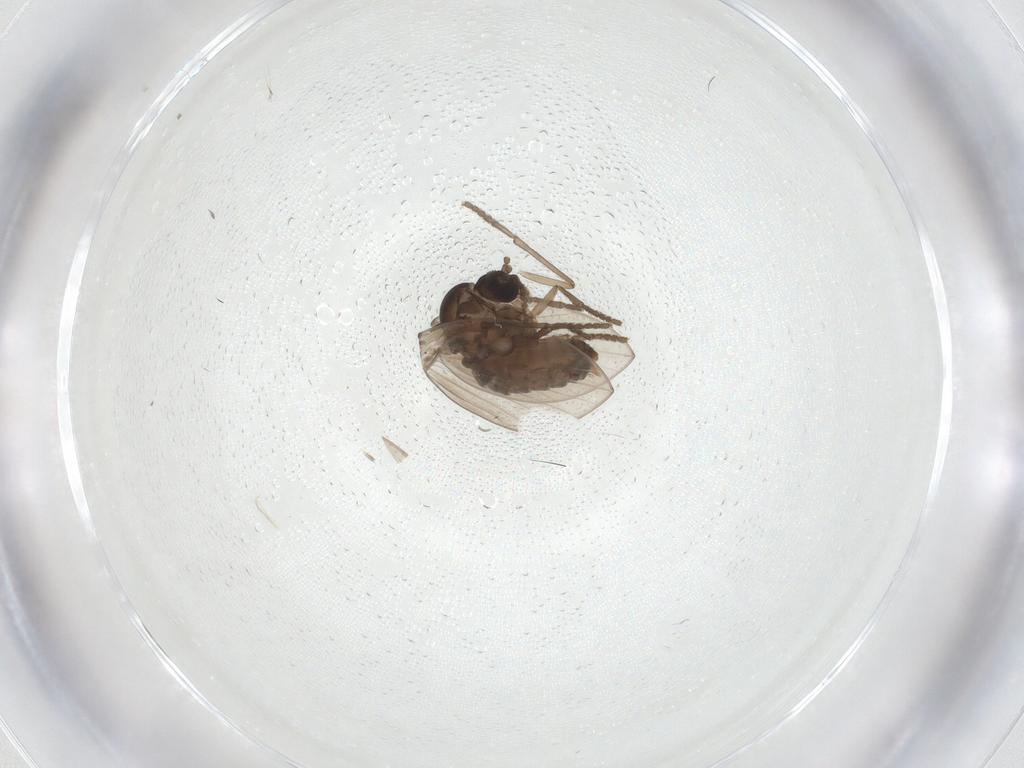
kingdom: Animalia
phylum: Arthropoda
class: Insecta
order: Diptera
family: Psychodidae
